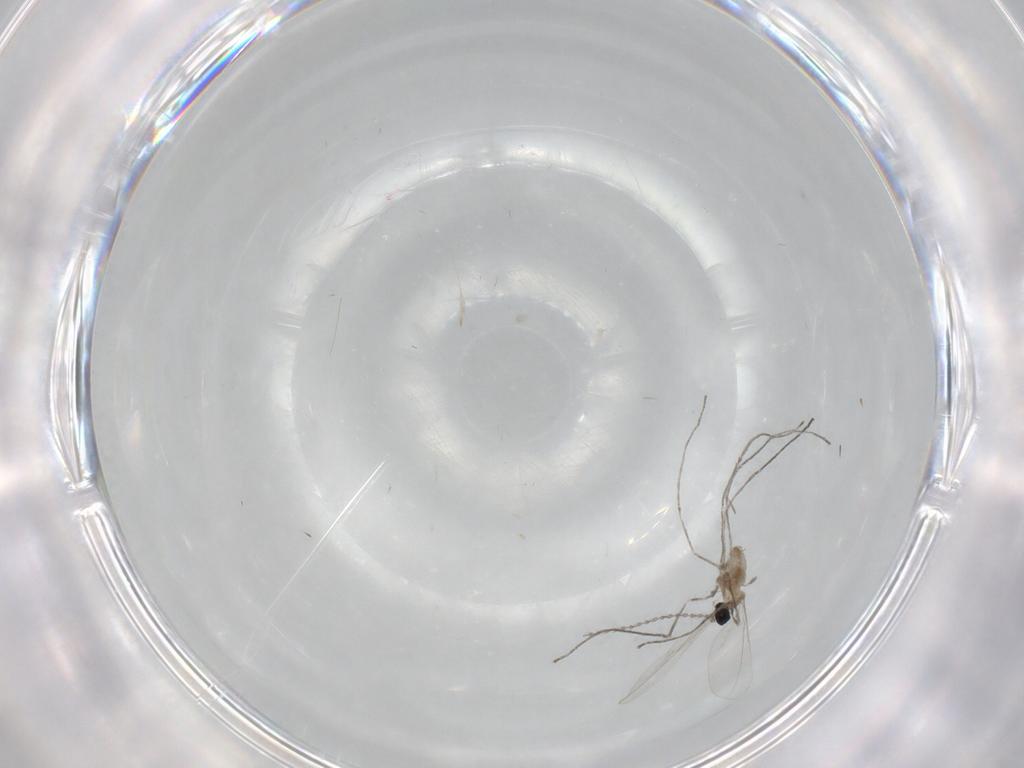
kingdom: Animalia
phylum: Arthropoda
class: Insecta
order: Diptera
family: Cecidomyiidae
